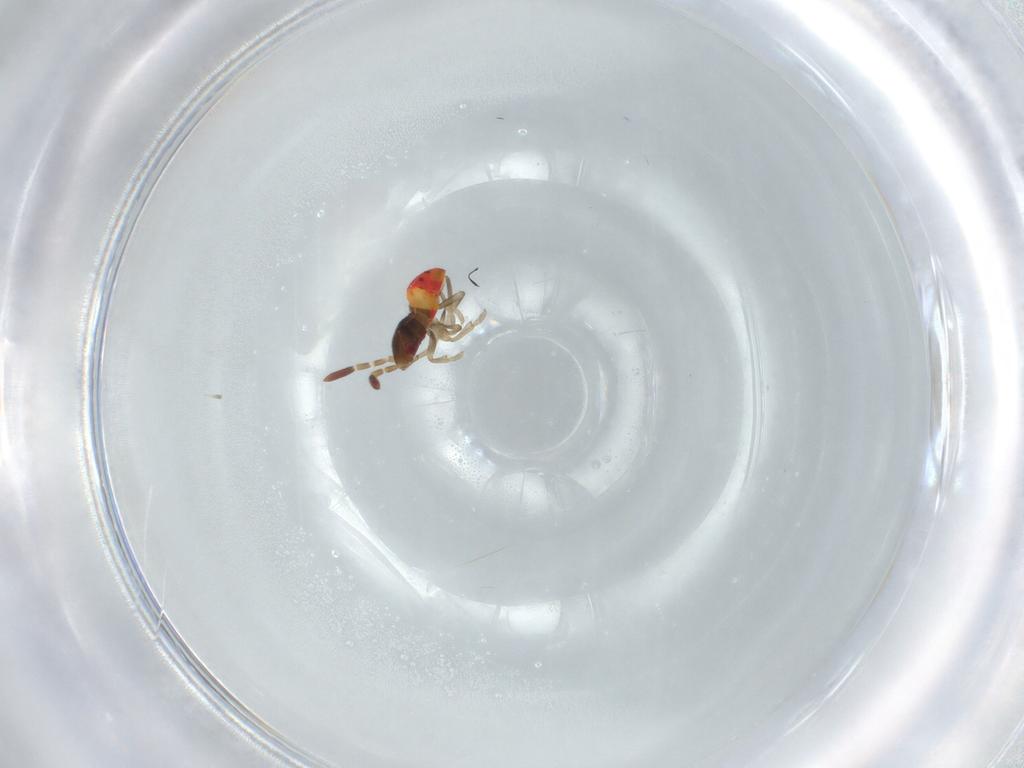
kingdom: Animalia
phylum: Arthropoda
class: Insecta
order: Hemiptera
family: Rhyparochromidae
